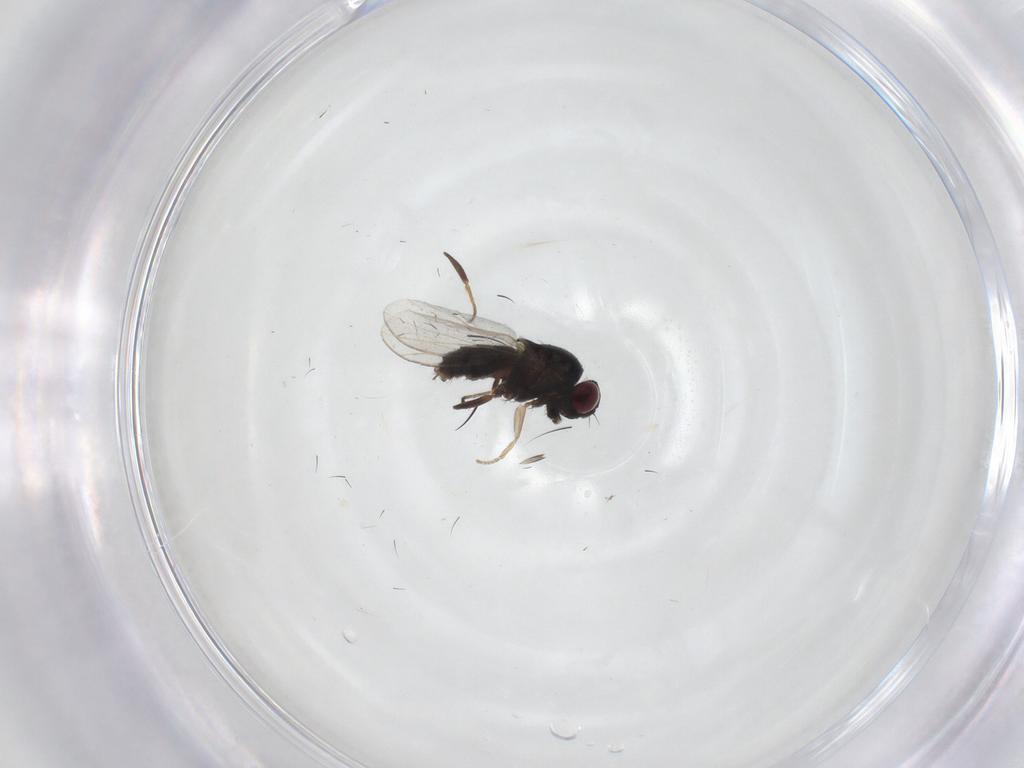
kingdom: Animalia
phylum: Arthropoda
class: Insecta
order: Diptera
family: Carnidae
